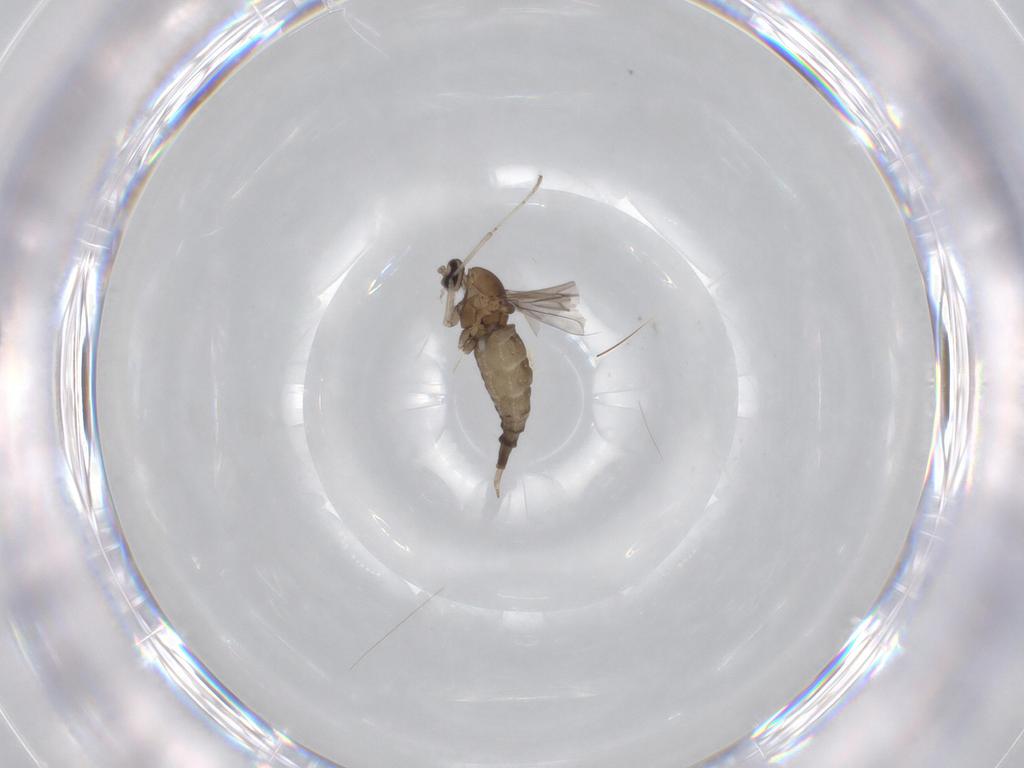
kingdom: Animalia
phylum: Arthropoda
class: Insecta
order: Diptera
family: Cecidomyiidae
